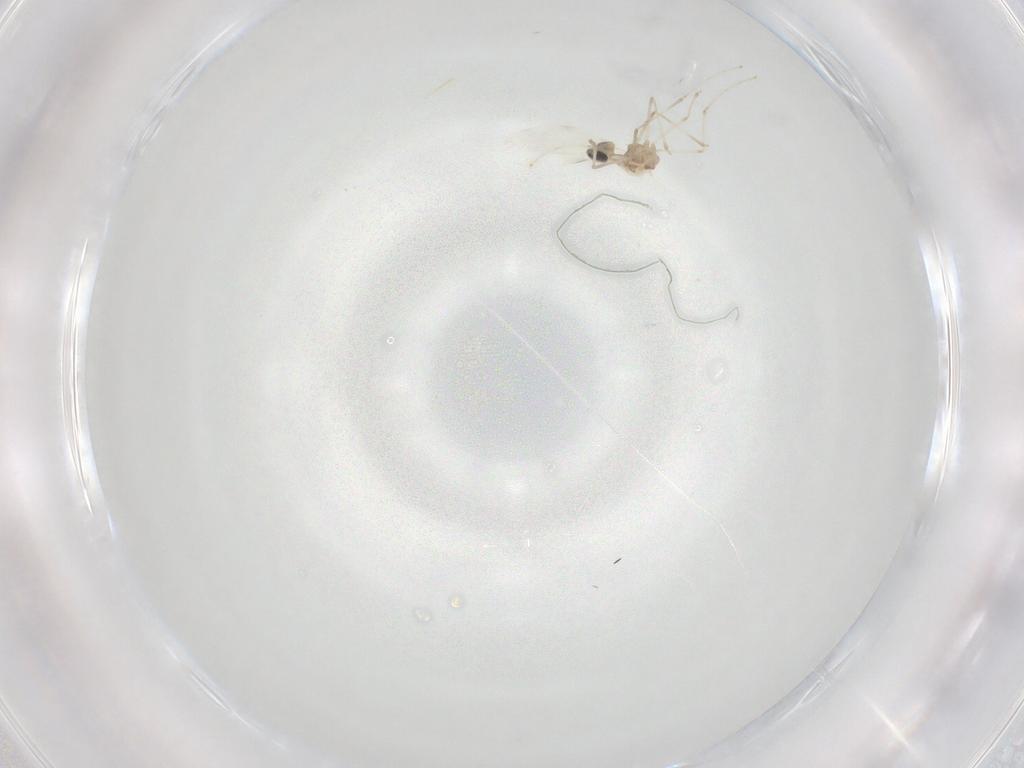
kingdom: Animalia
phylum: Arthropoda
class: Insecta
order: Diptera
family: Cecidomyiidae
